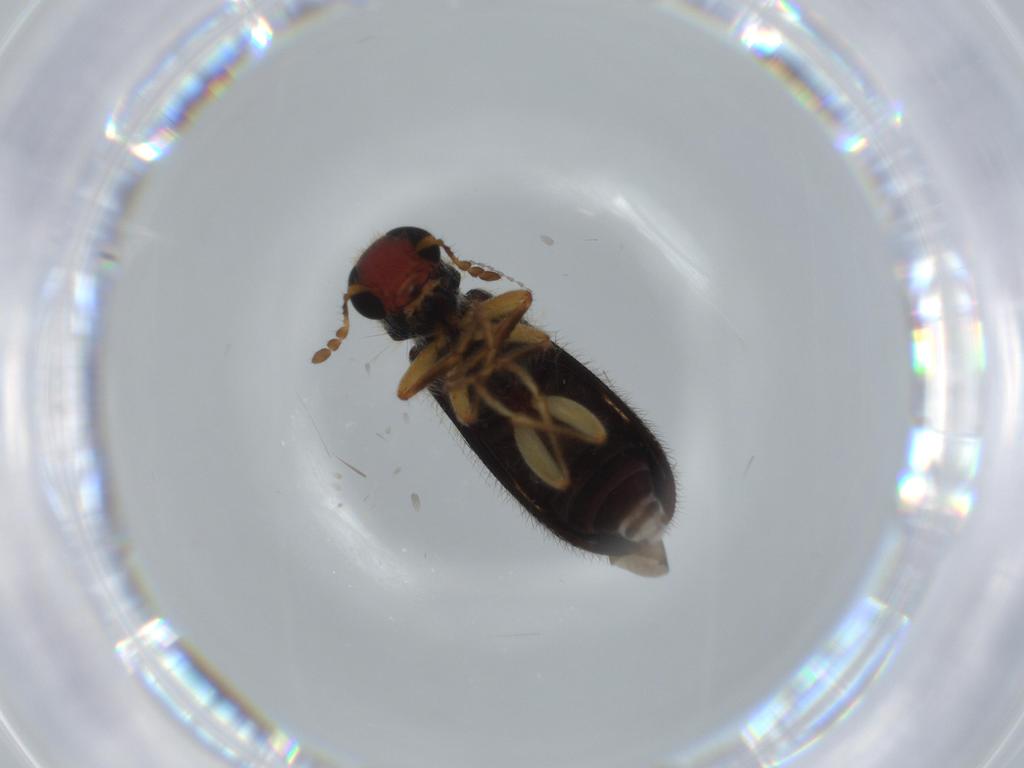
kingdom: Animalia
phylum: Arthropoda
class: Insecta
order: Coleoptera
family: Cleridae
